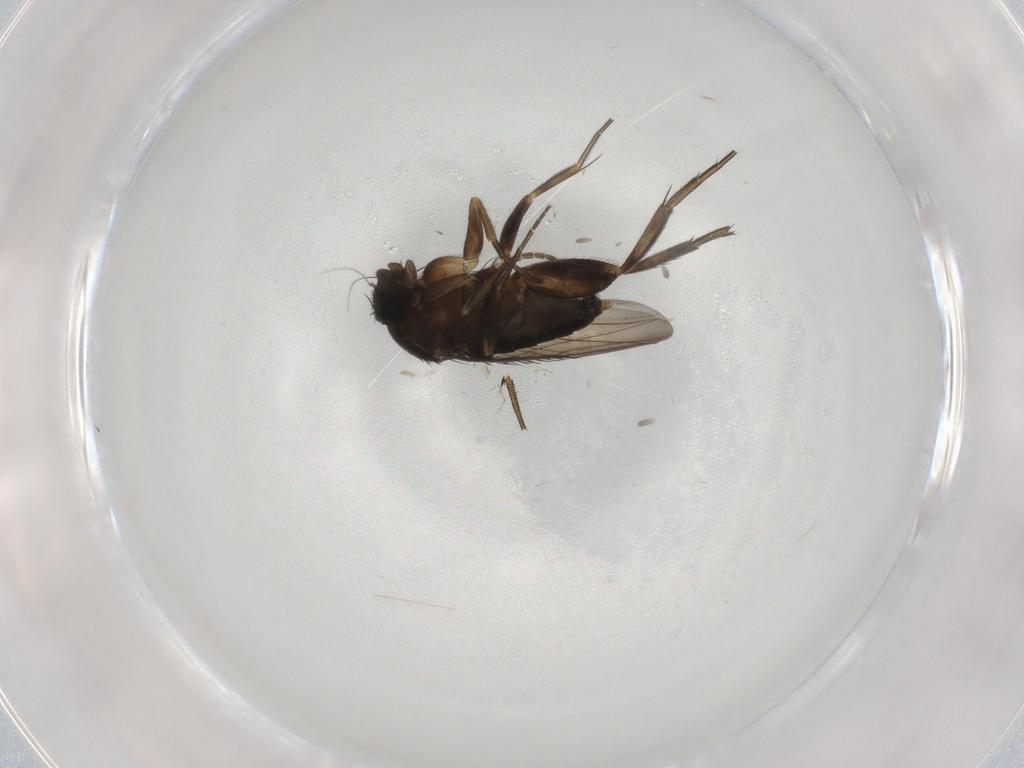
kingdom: Animalia
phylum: Arthropoda
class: Insecta
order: Diptera
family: Phoridae
